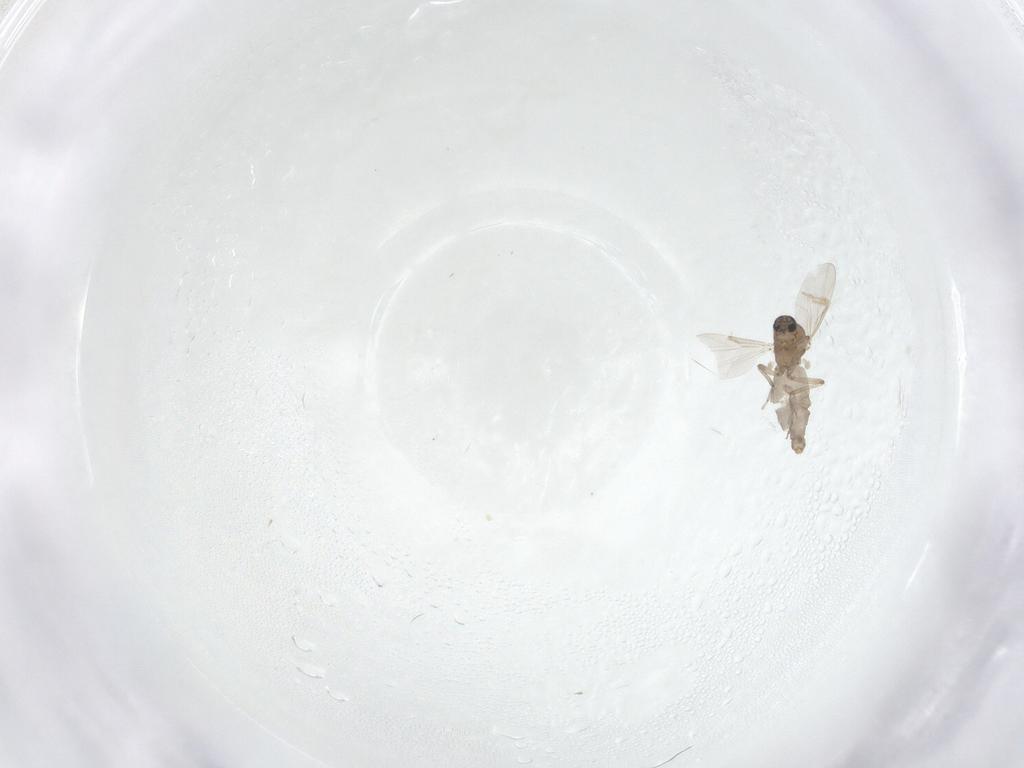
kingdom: Animalia
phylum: Arthropoda
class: Insecta
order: Diptera
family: Ceratopogonidae
